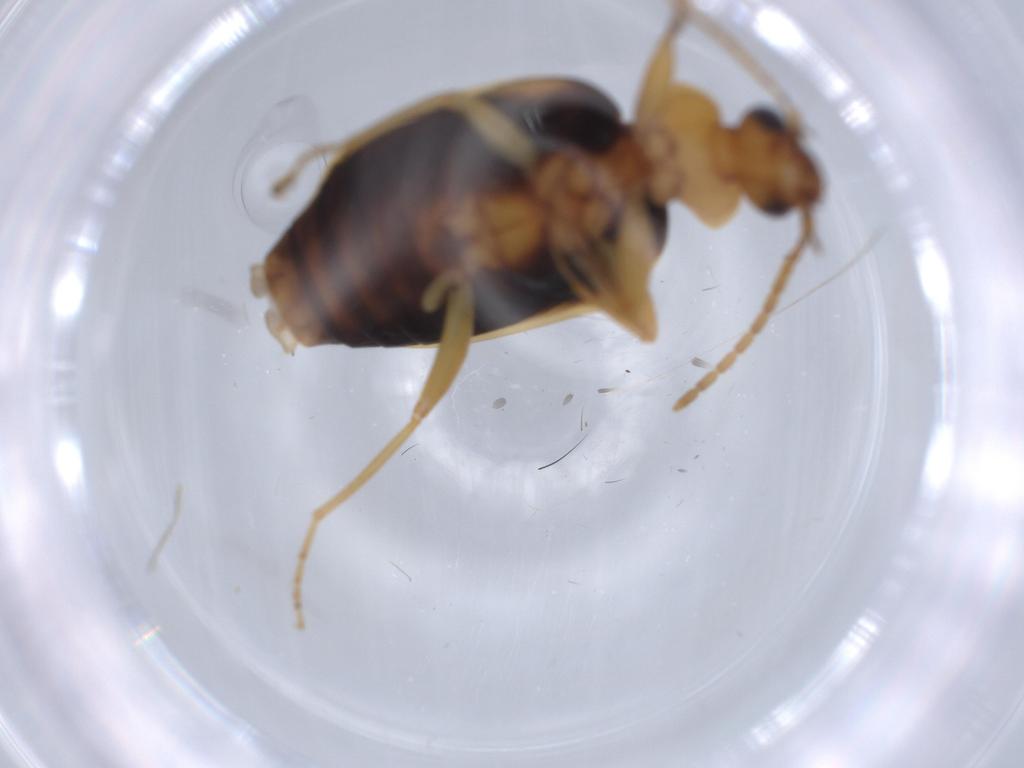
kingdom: Animalia
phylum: Arthropoda
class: Insecta
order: Coleoptera
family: Carabidae
